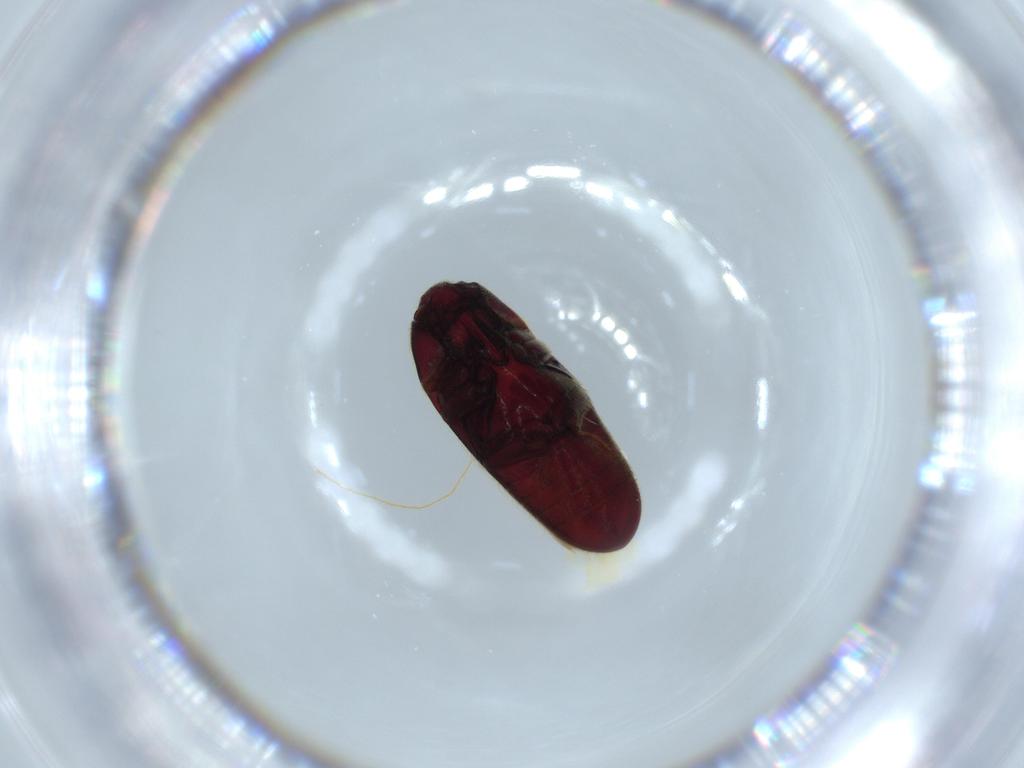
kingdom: Animalia
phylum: Arthropoda
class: Insecta
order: Coleoptera
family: Throscidae
